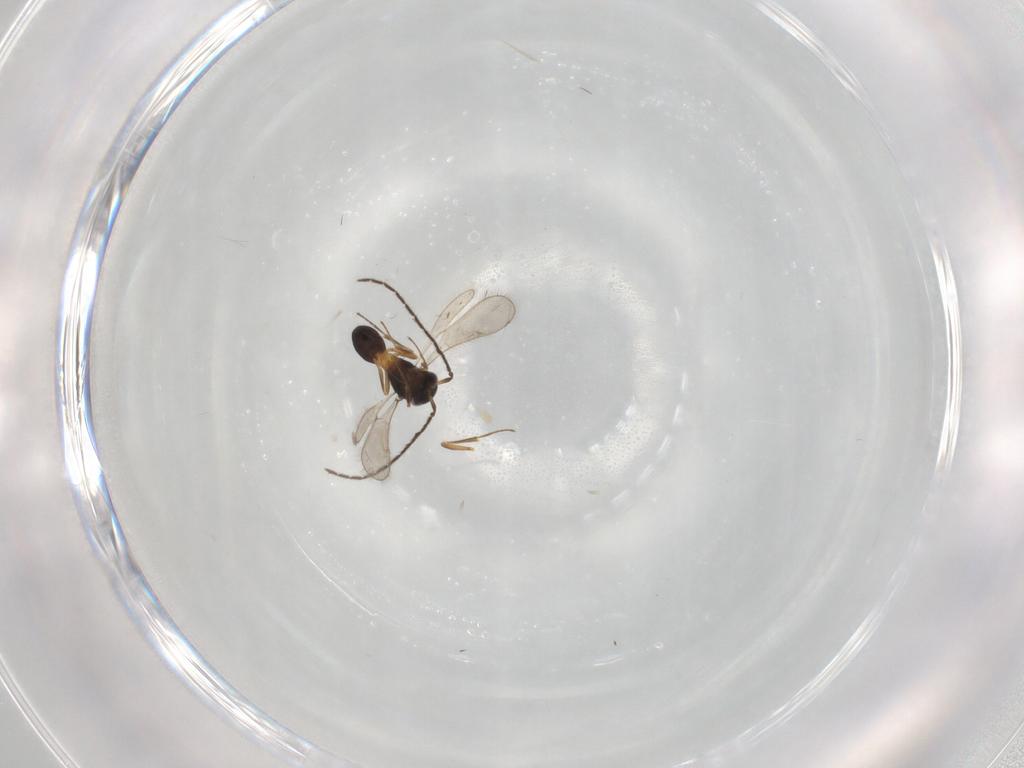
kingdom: Animalia
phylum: Arthropoda
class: Insecta
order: Hymenoptera
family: Scelionidae
